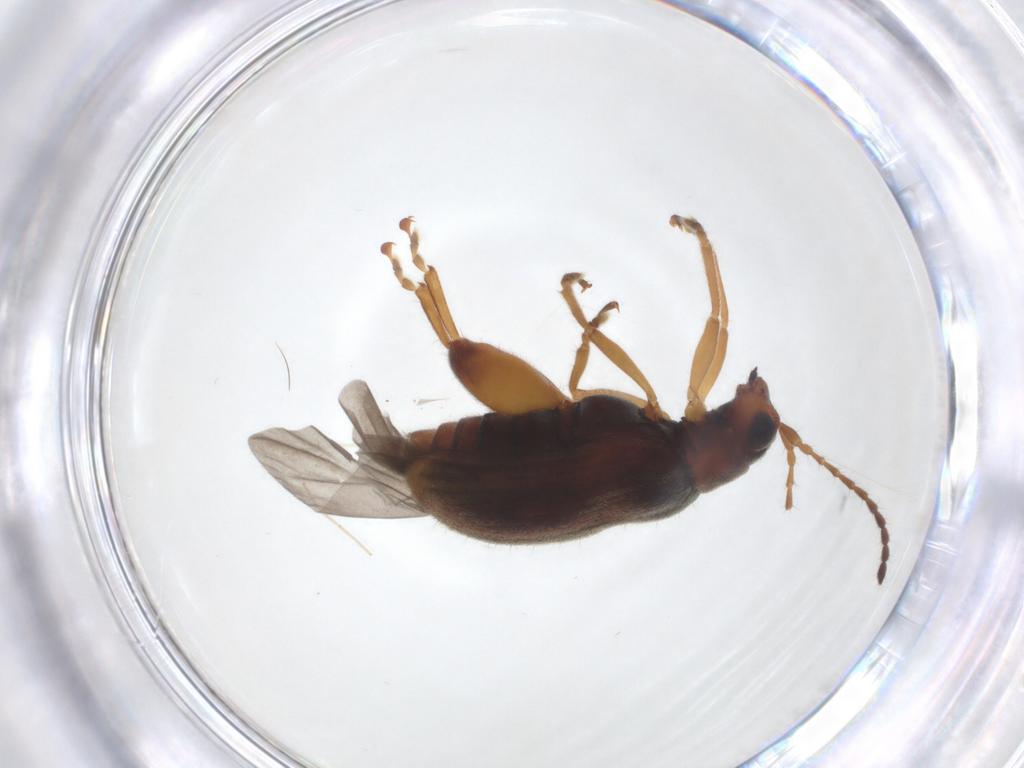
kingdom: Animalia
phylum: Arthropoda
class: Insecta
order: Coleoptera
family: Chrysomelidae
